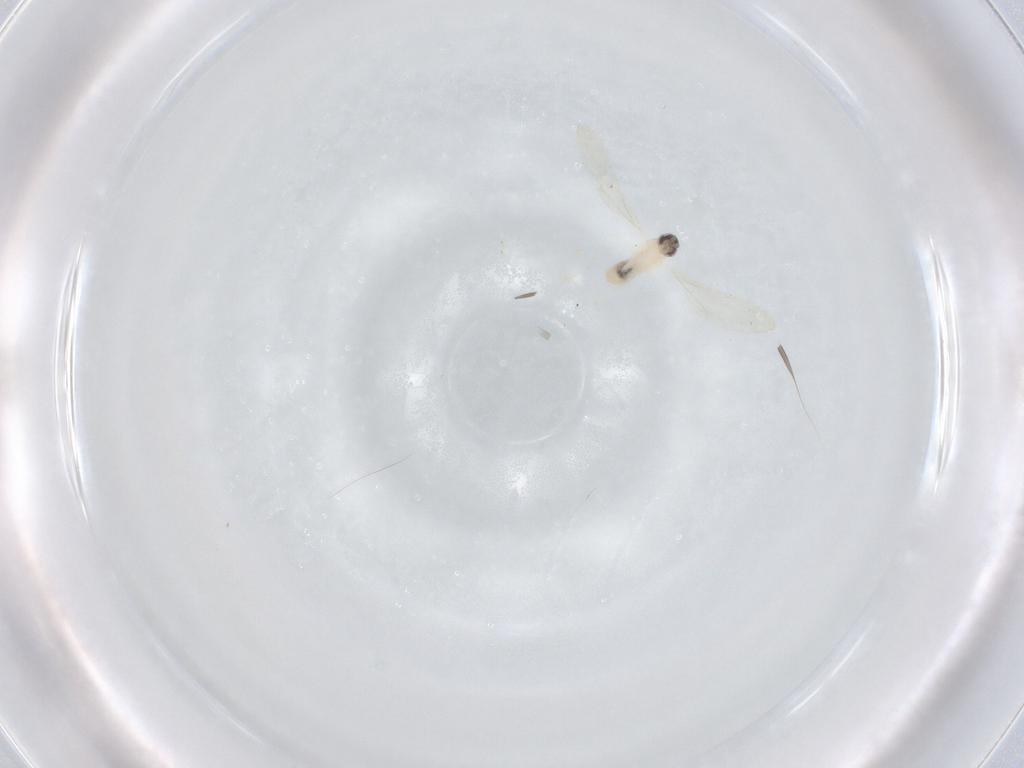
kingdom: Animalia
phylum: Arthropoda
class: Insecta
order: Diptera
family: Cecidomyiidae
